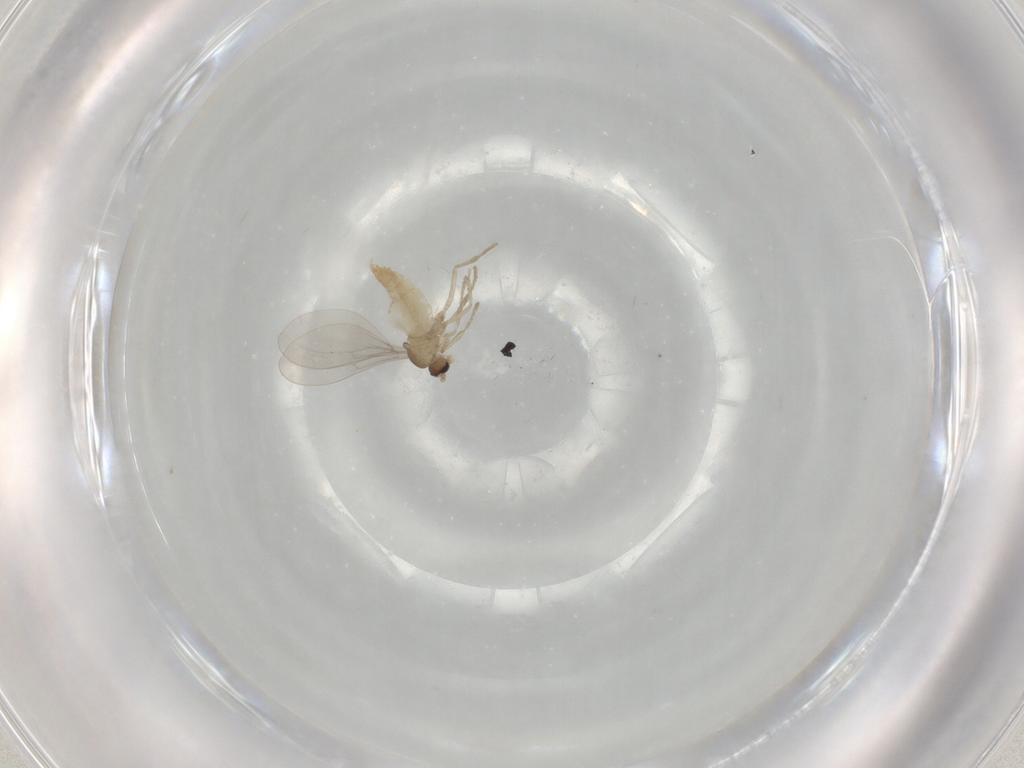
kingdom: Animalia
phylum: Arthropoda
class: Insecta
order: Diptera
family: Cecidomyiidae
